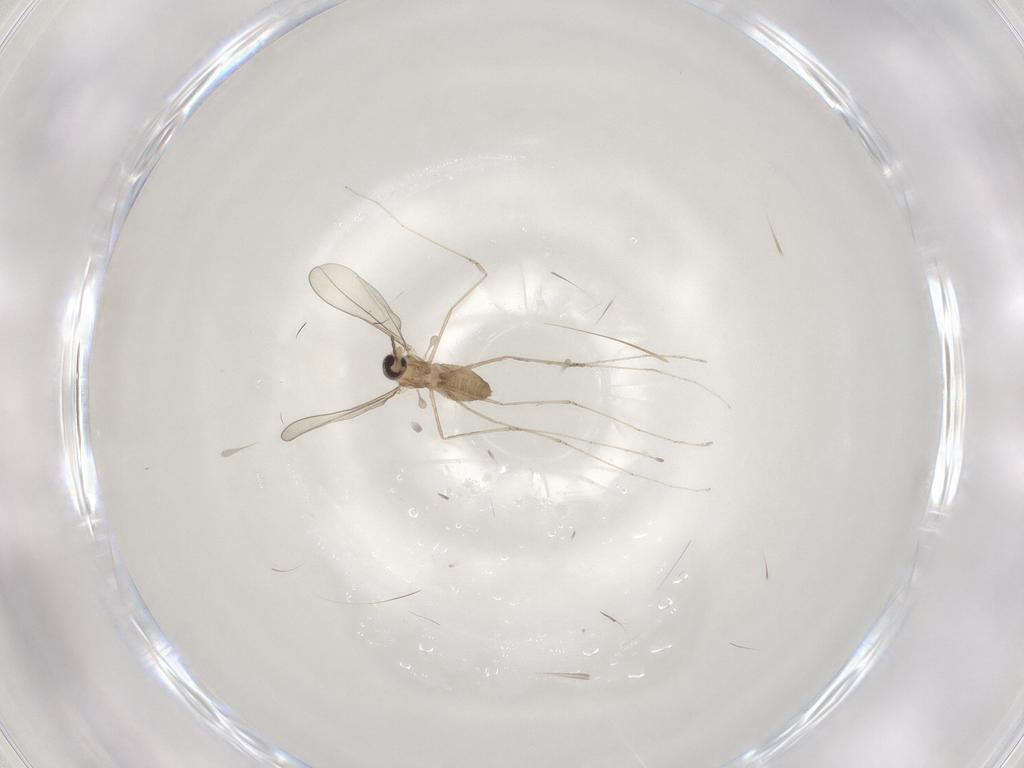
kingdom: Animalia
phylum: Arthropoda
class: Insecta
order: Diptera
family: Cecidomyiidae
